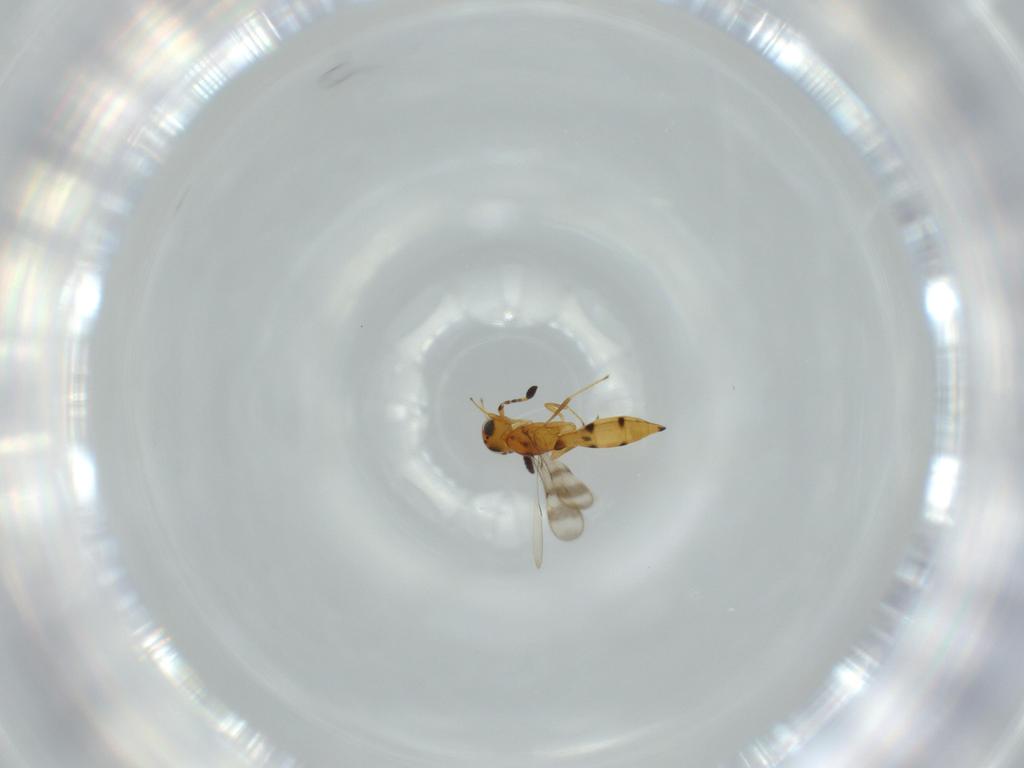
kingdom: Animalia
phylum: Arthropoda
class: Insecta
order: Hymenoptera
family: Scelionidae
